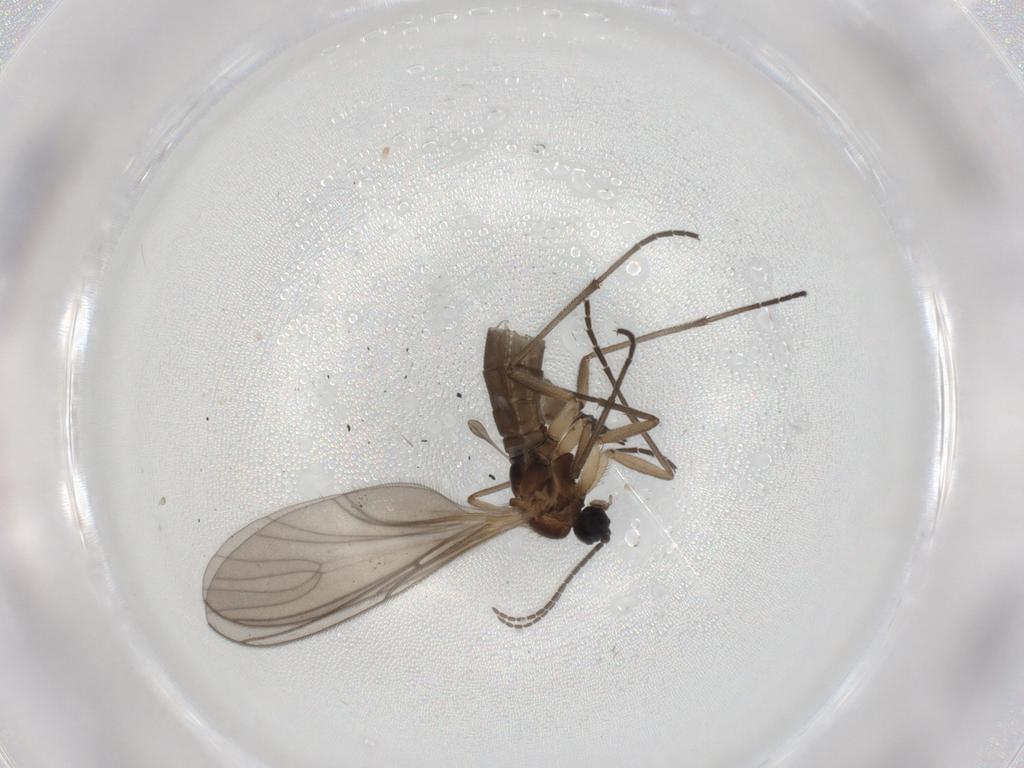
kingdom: Animalia
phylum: Arthropoda
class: Insecta
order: Diptera
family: Sciaridae
